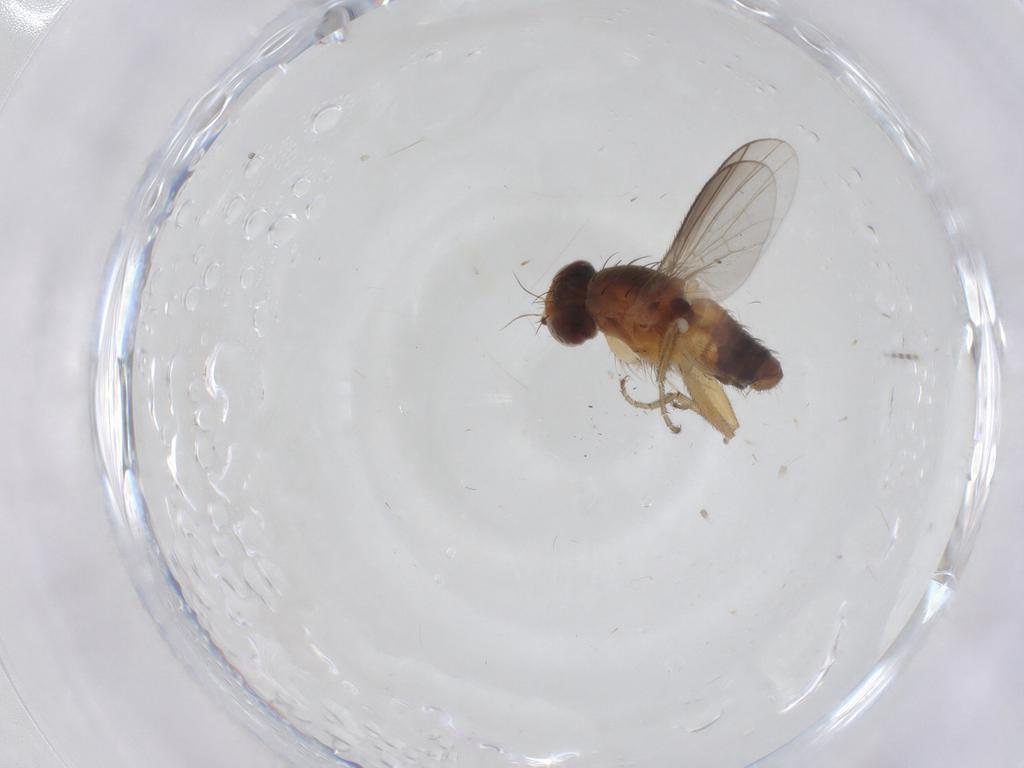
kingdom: Animalia
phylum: Arthropoda
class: Insecta
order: Diptera
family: Heleomyzidae
